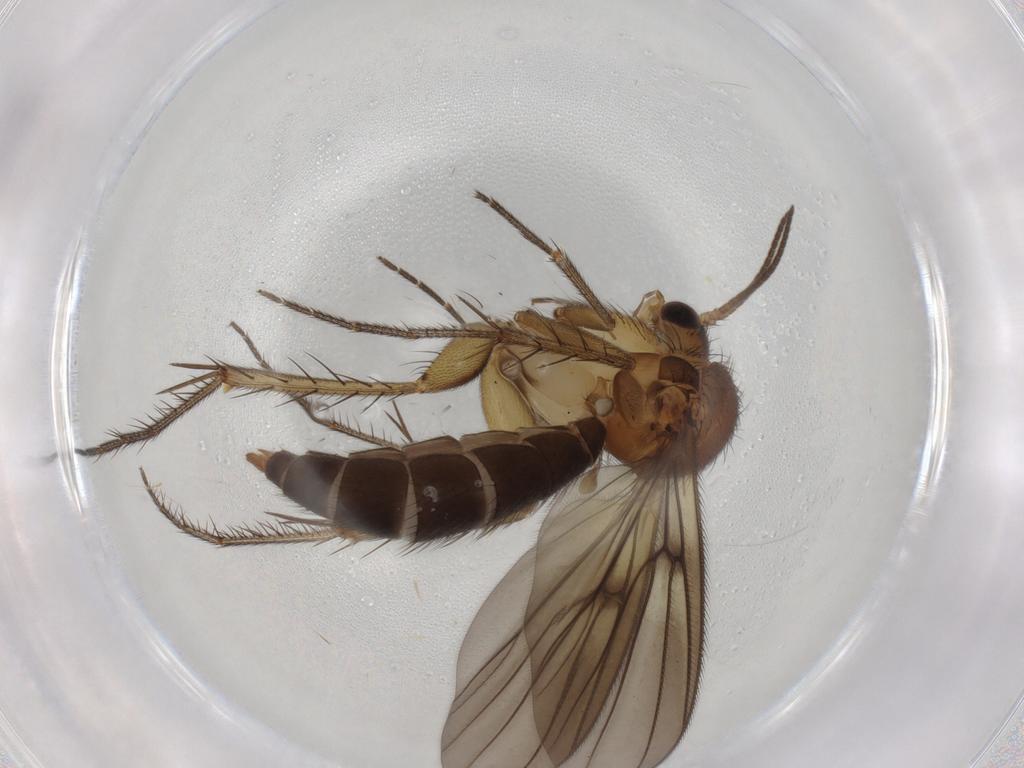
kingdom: Animalia
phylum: Arthropoda
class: Insecta
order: Diptera
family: Mycetophilidae
